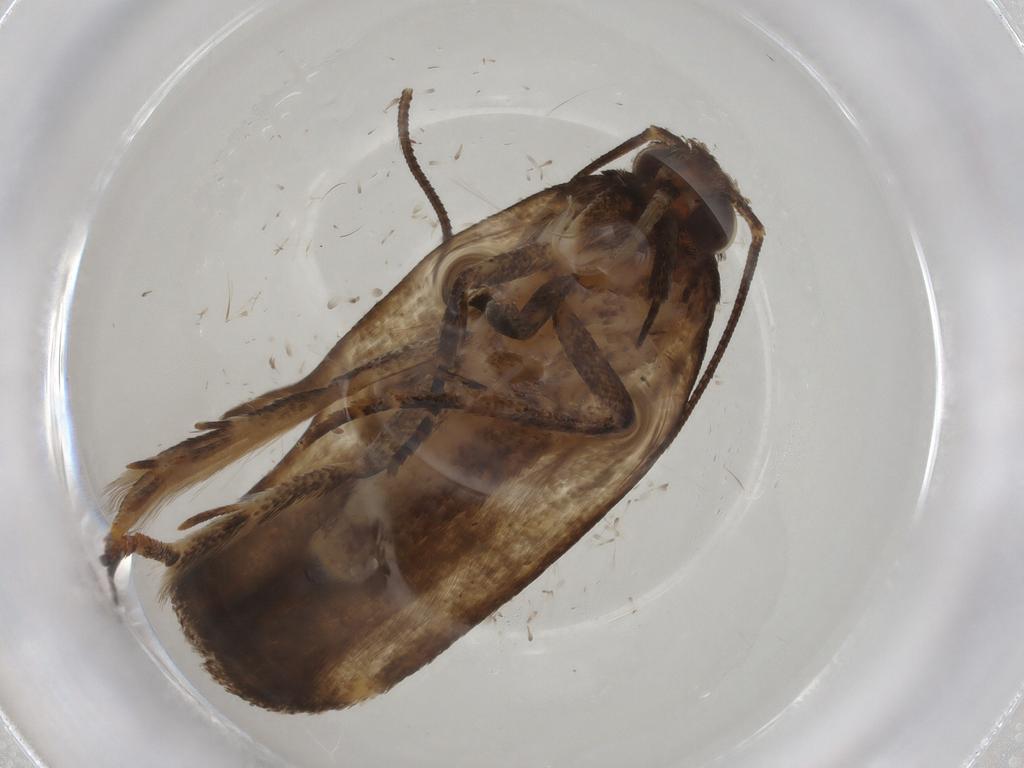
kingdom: Animalia
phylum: Arthropoda
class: Insecta
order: Lepidoptera
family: Gelechiidae
